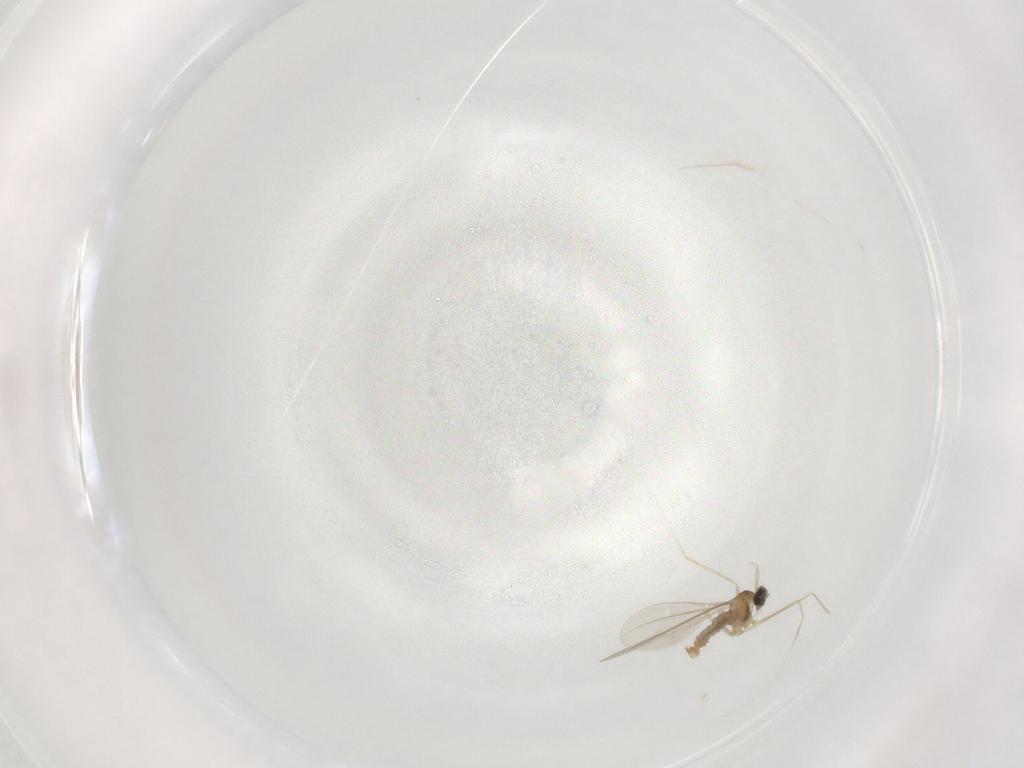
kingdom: Animalia
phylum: Arthropoda
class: Insecta
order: Diptera
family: Cecidomyiidae
